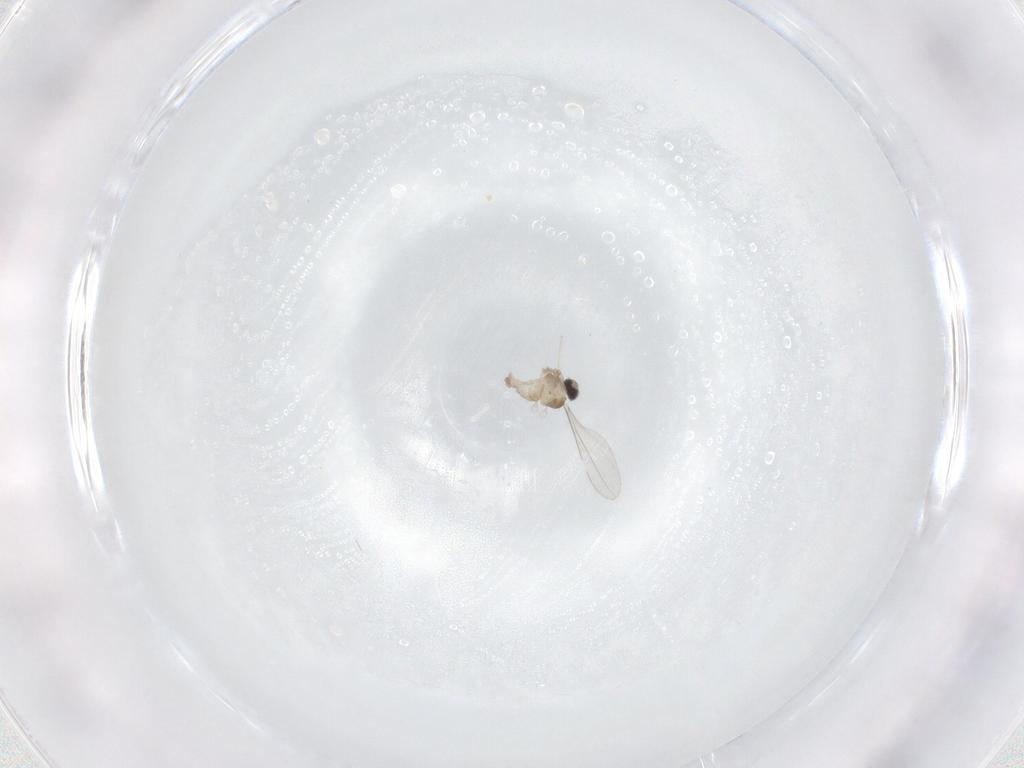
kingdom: Animalia
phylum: Arthropoda
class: Insecta
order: Diptera
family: Cecidomyiidae
